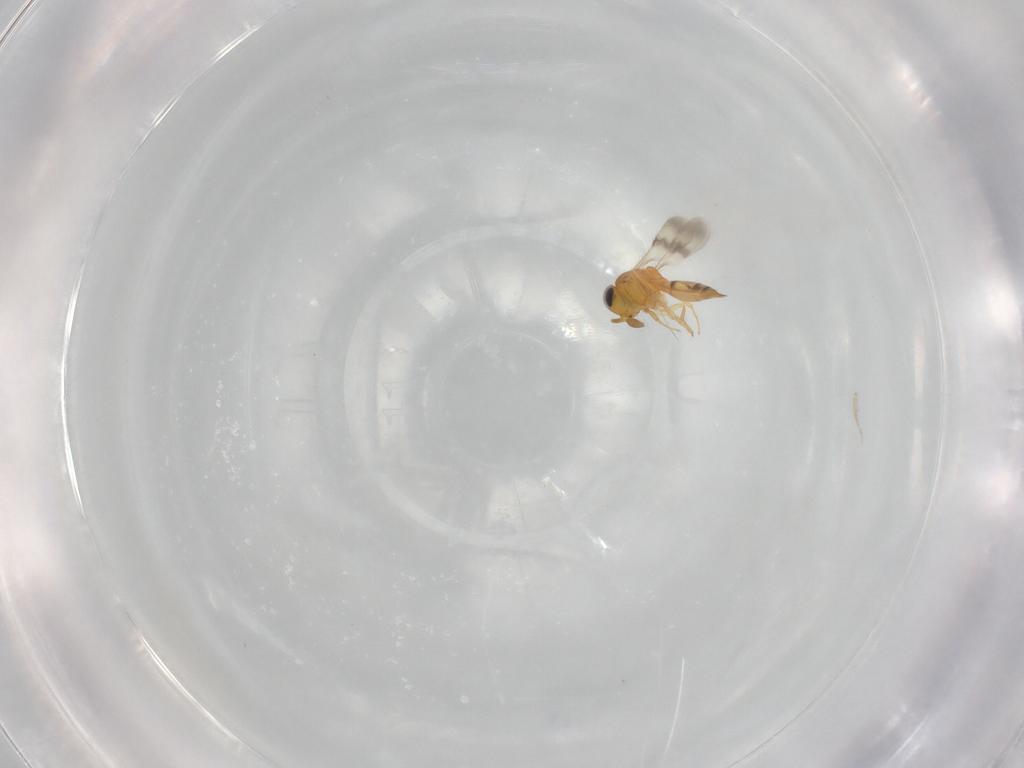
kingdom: Animalia
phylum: Arthropoda
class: Insecta
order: Hymenoptera
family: Scelionidae
